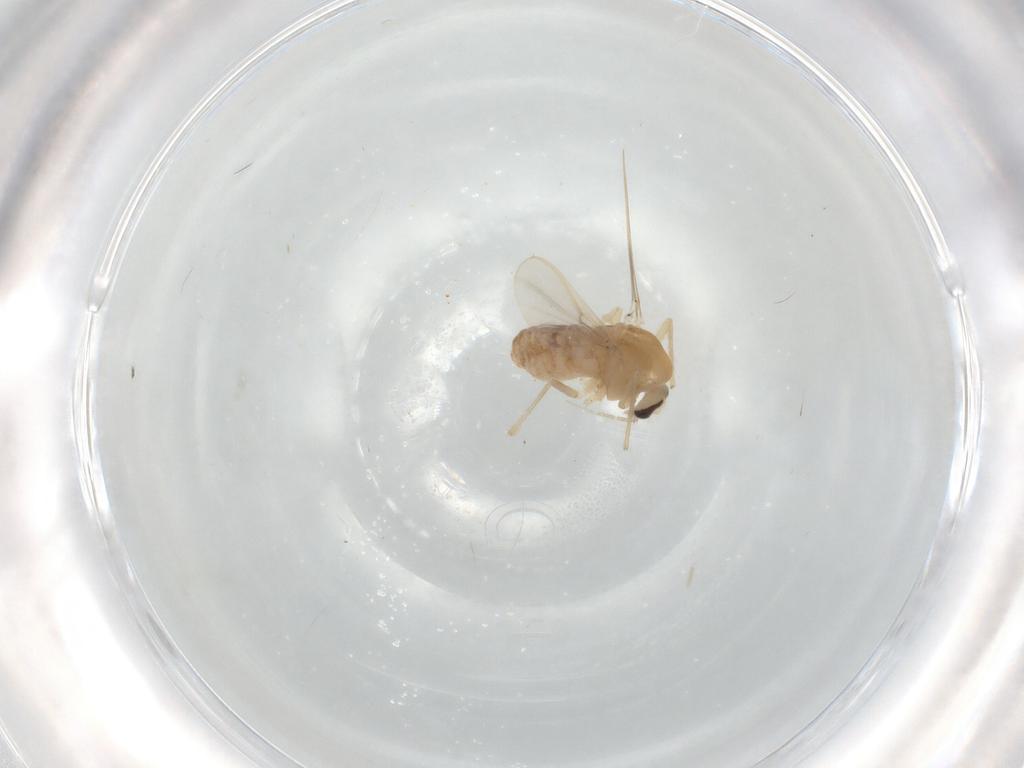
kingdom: Animalia
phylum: Arthropoda
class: Insecta
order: Diptera
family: Chironomidae
